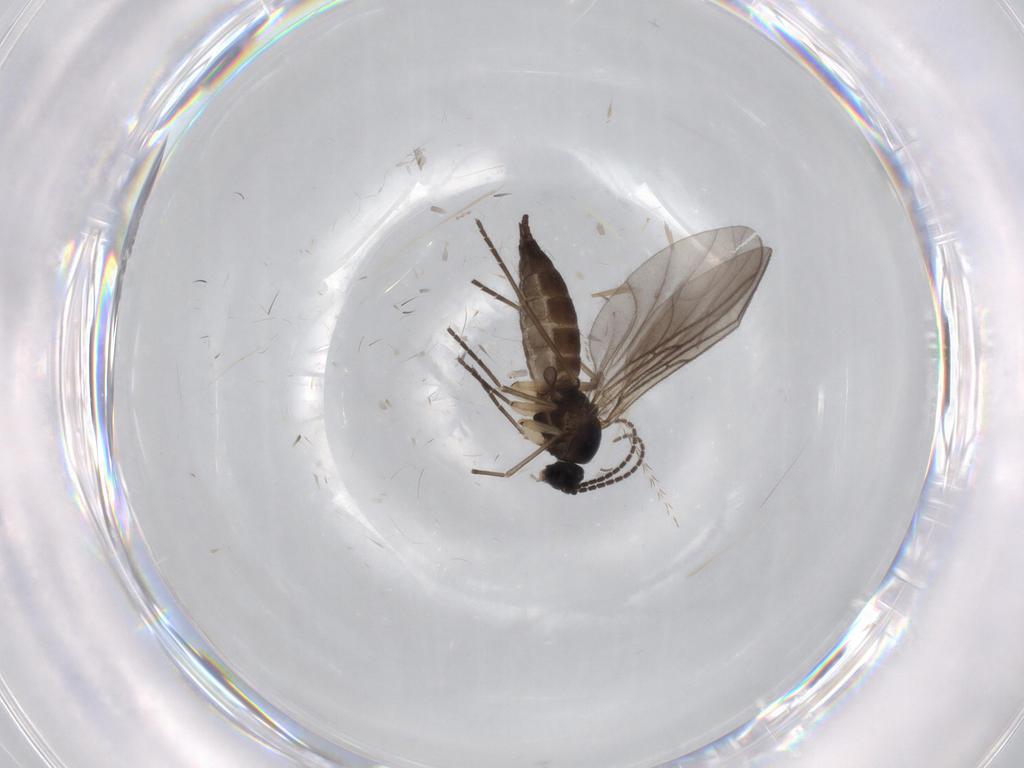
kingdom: Animalia
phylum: Arthropoda
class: Insecta
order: Diptera
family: Sciaridae
